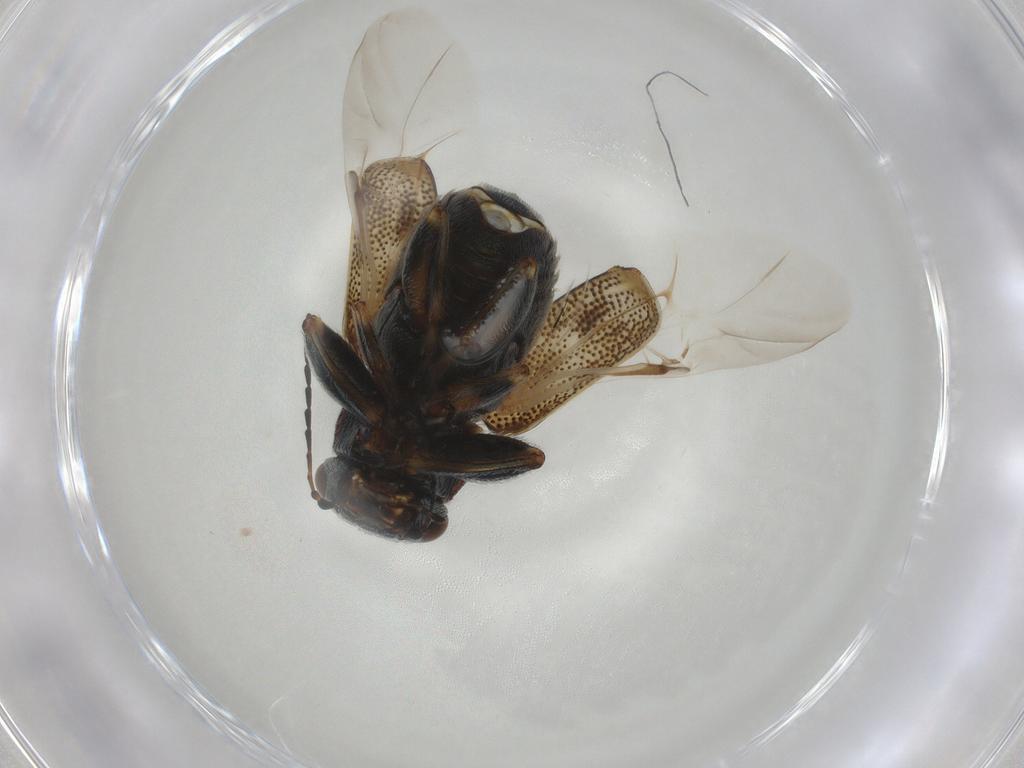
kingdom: Animalia
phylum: Arthropoda
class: Insecta
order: Coleoptera
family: Chrysomelidae
